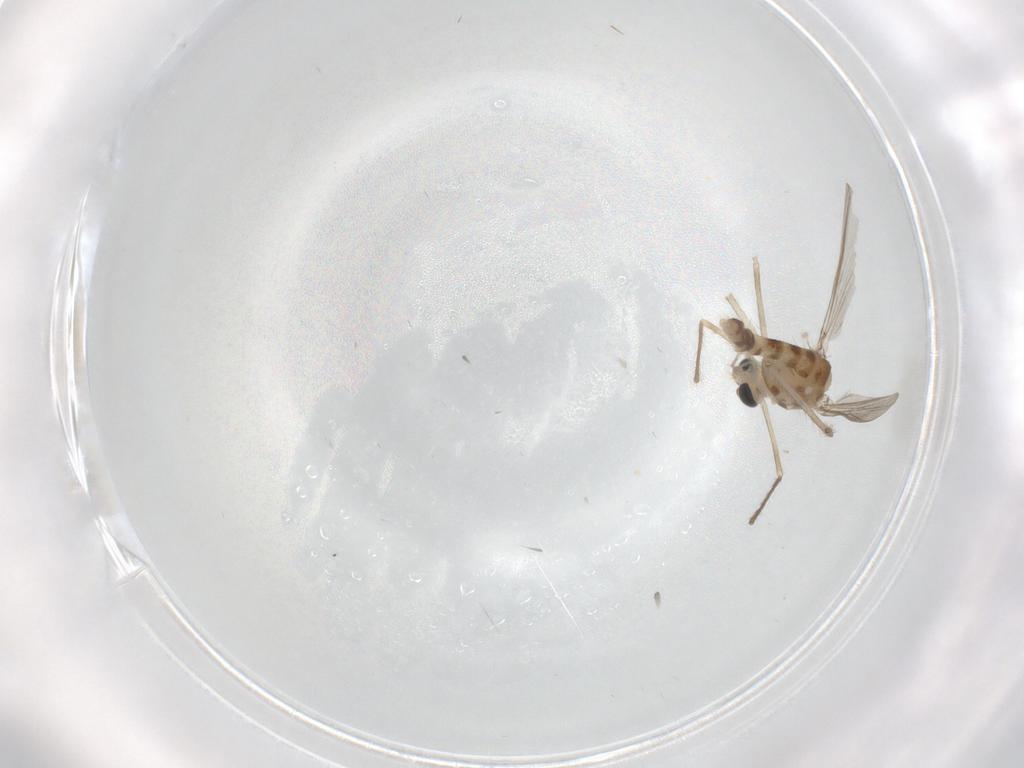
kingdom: Animalia
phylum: Arthropoda
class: Insecta
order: Diptera
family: Chironomidae
